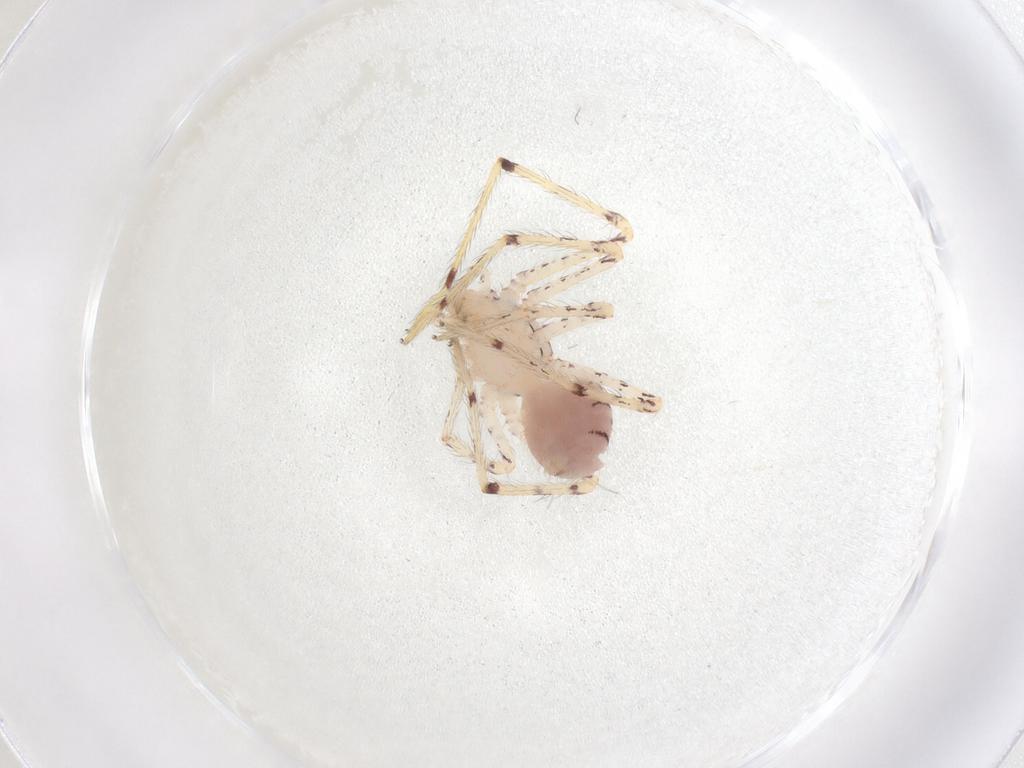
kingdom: Animalia
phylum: Arthropoda
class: Arachnida
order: Araneae
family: Scytodidae
